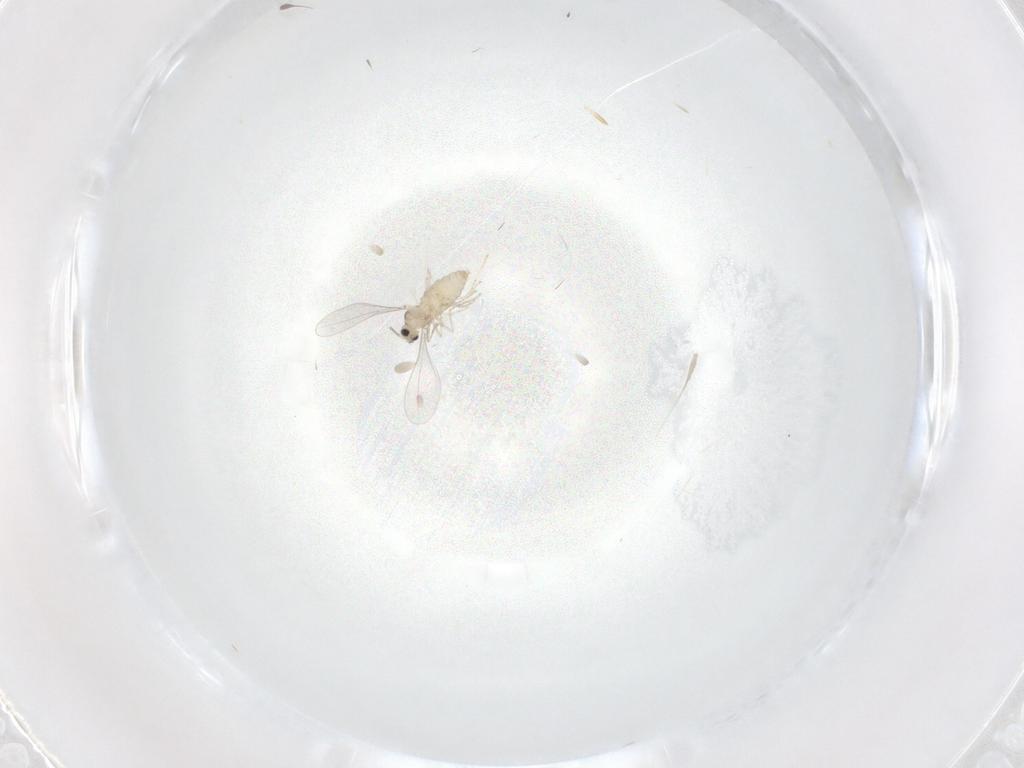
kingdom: Animalia
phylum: Arthropoda
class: Insecta
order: Diptera
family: Cecidomyiidae
